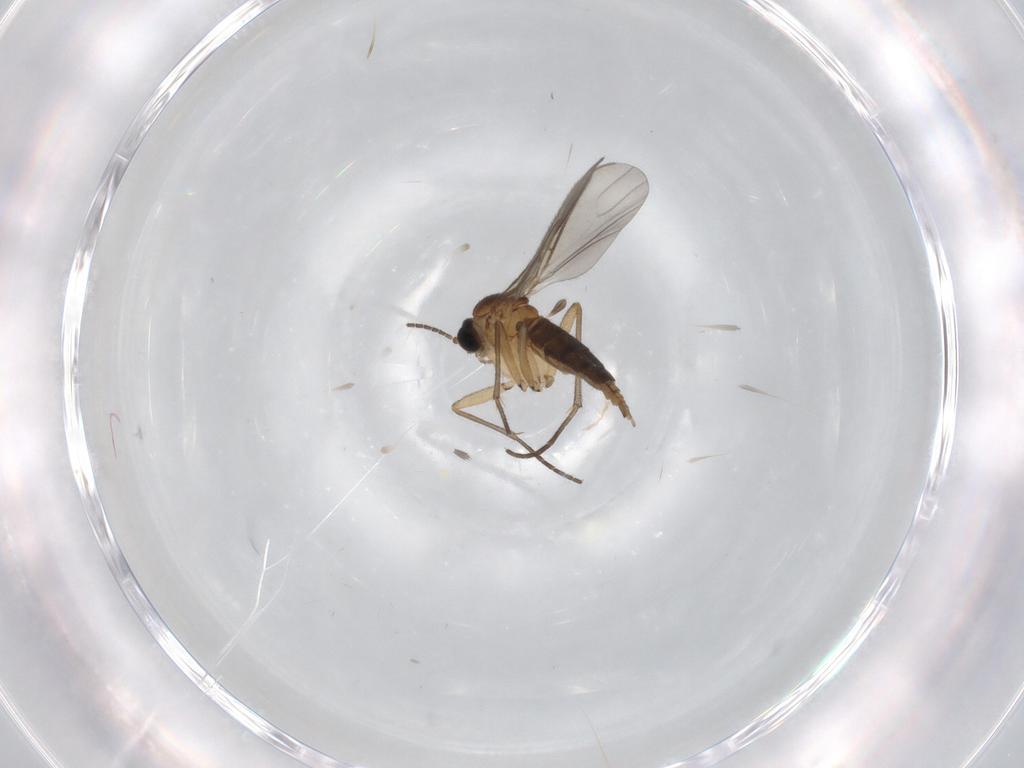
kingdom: Animalia
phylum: Arthropoda
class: Insecta
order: Diptera
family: Sciaridae
